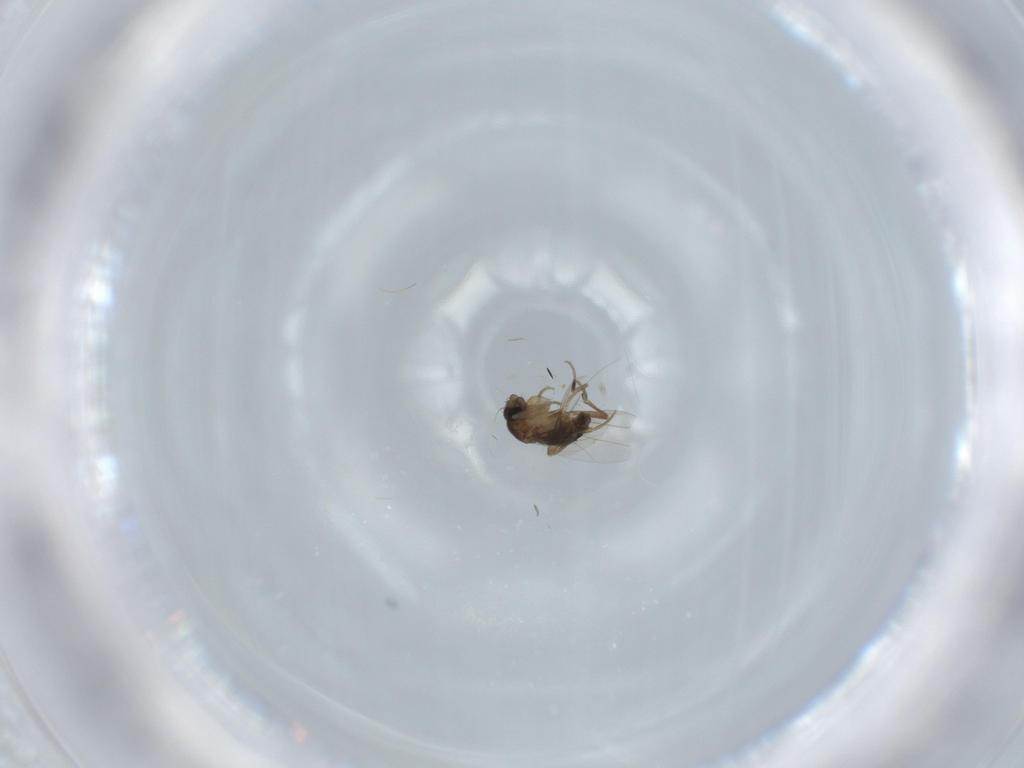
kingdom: Animalia
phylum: Arthropoda
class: Insecta
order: Diptera
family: Phoridae
